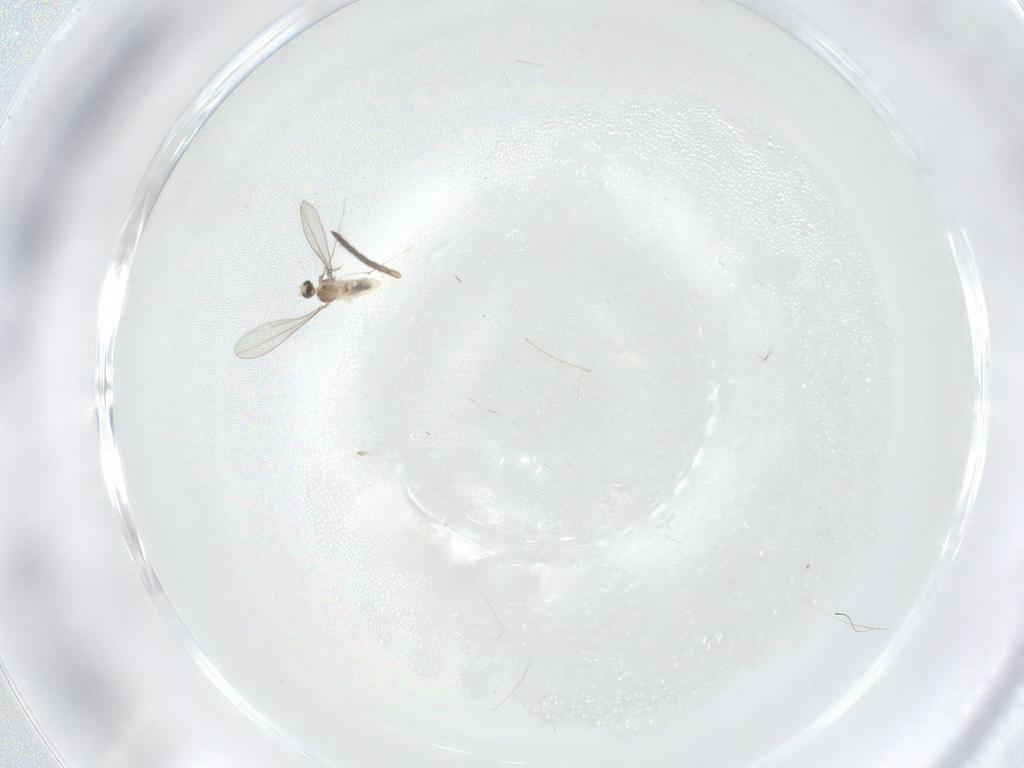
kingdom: Animalia
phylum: Arthropoda
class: Insecta
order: Diptera
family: Cecidomyiidae
